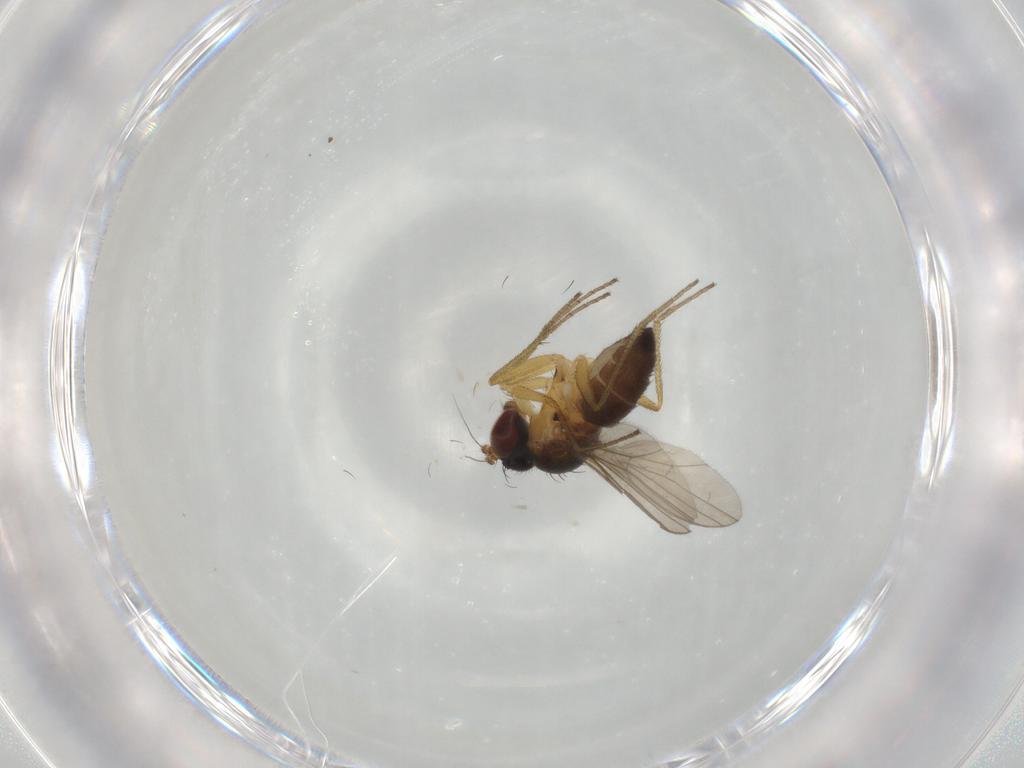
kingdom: Animalia
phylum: Arthropoda
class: Insecta
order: Diptera
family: Dolichopodidae
